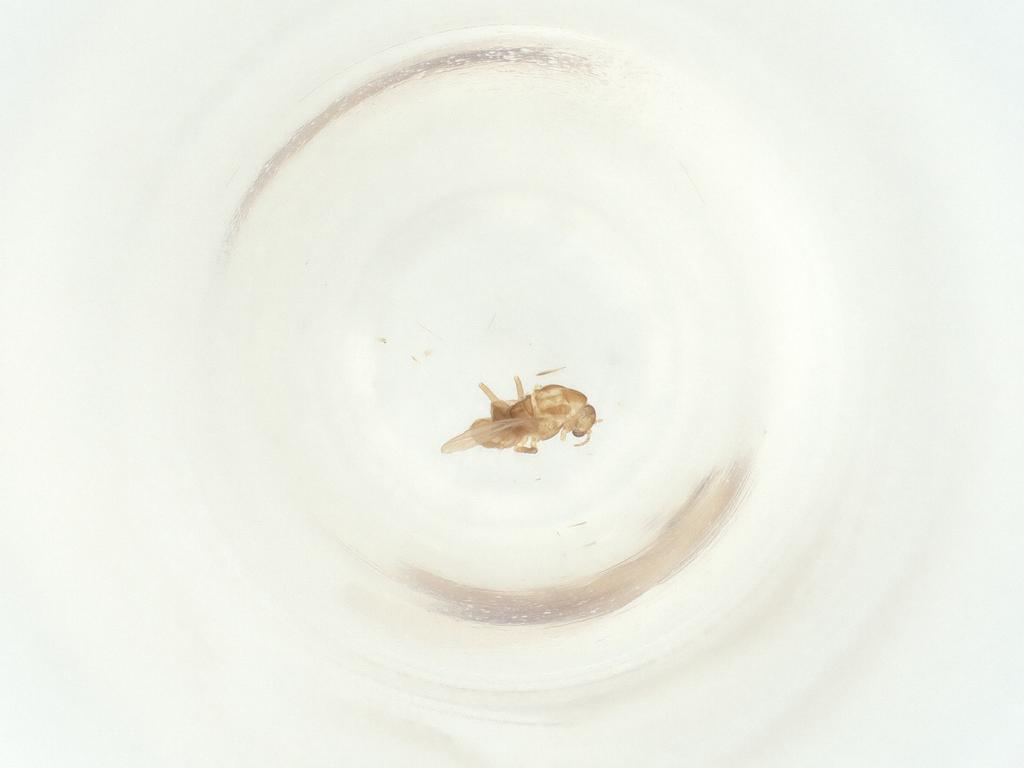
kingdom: Animalia
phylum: Arthropoda
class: Insecta
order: Diptera
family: Chironomidae
